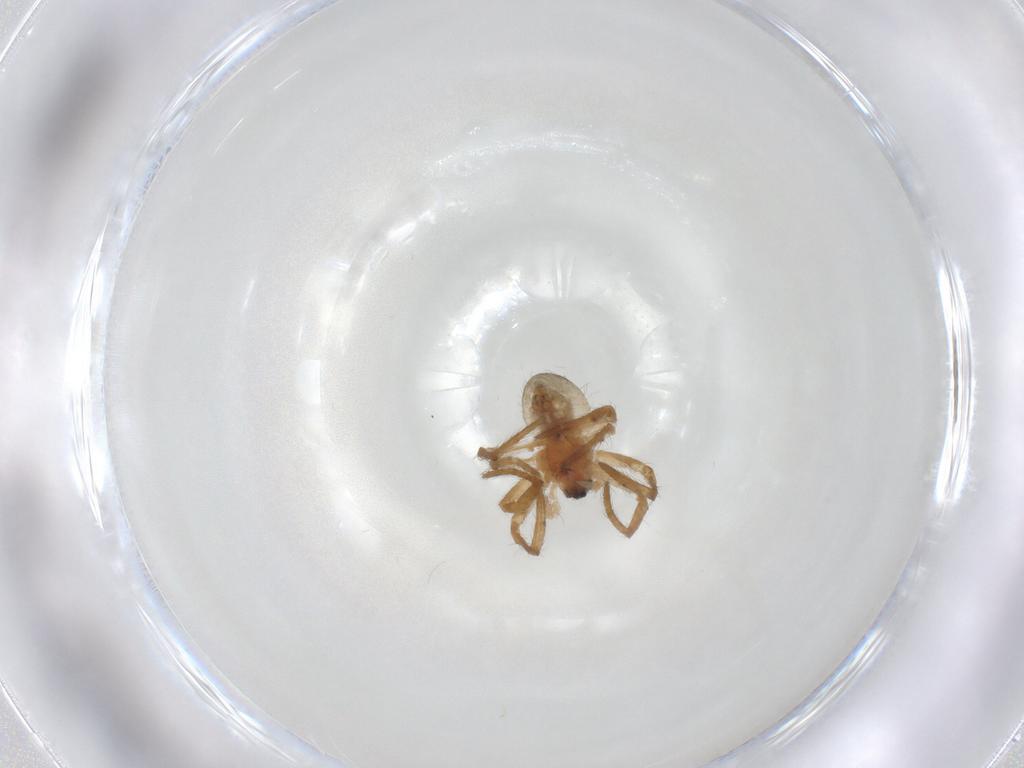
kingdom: Animalia
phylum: Arthropoda
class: Arachnida
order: Araneae
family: Araneidae
